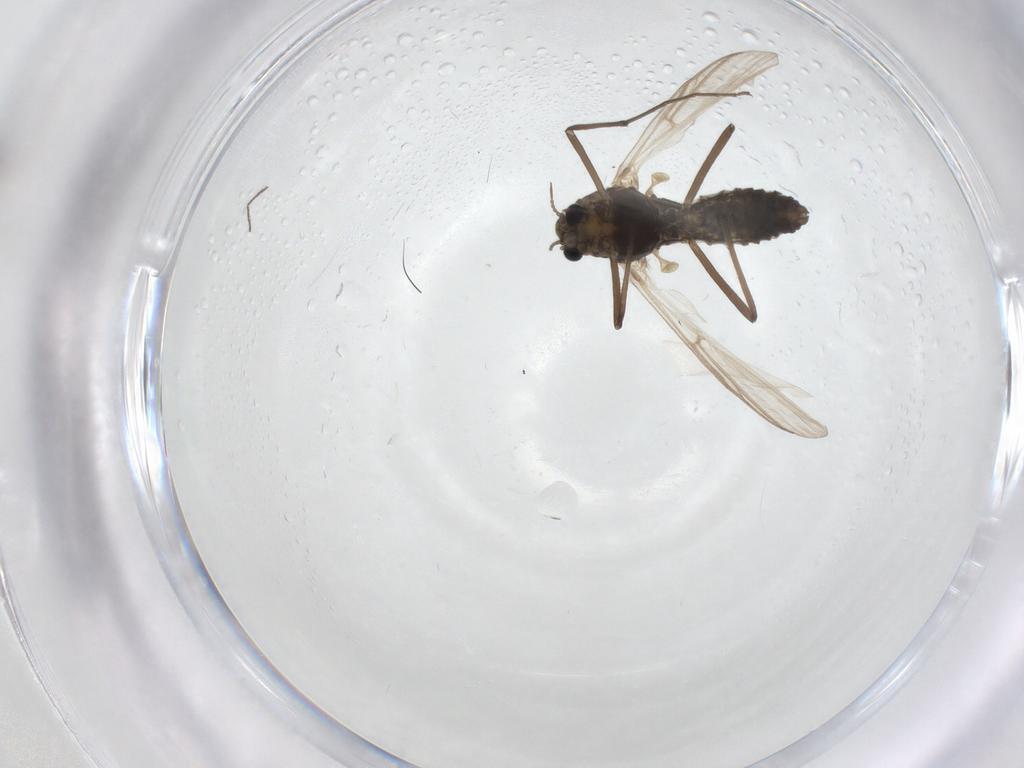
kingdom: Animalia
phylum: Arthropoda
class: Insecta
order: Diptera
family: Chironomidae
